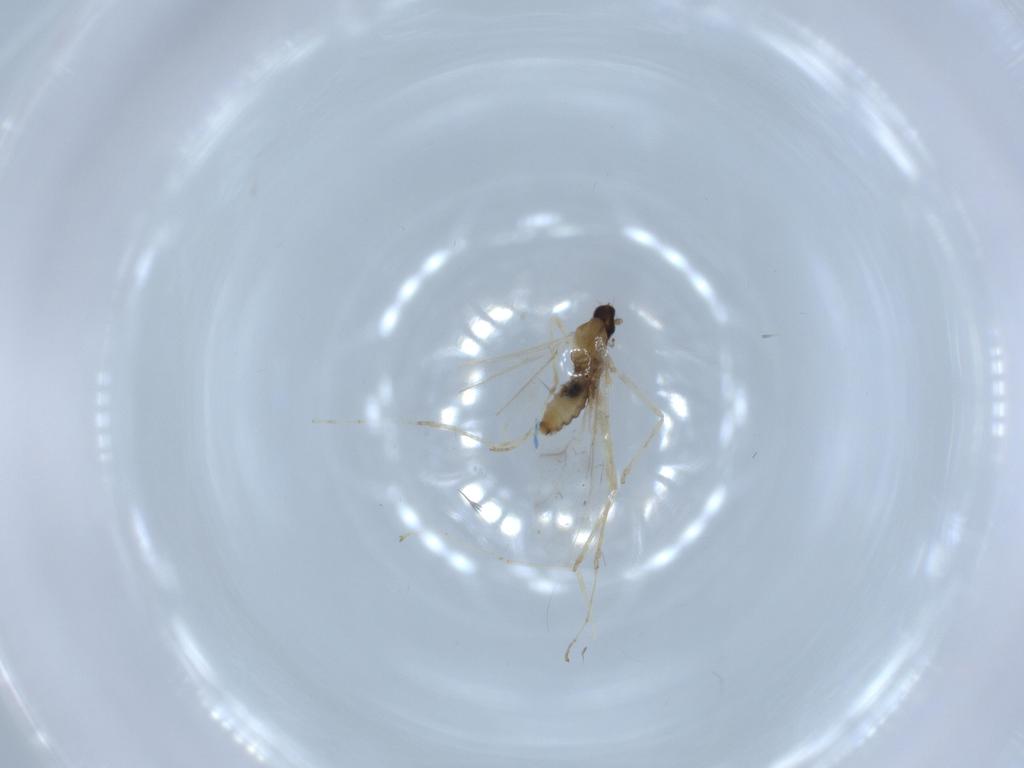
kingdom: Animalia
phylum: Arthropoda
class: Insecta
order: Diptera
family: Cecidomyiidae
